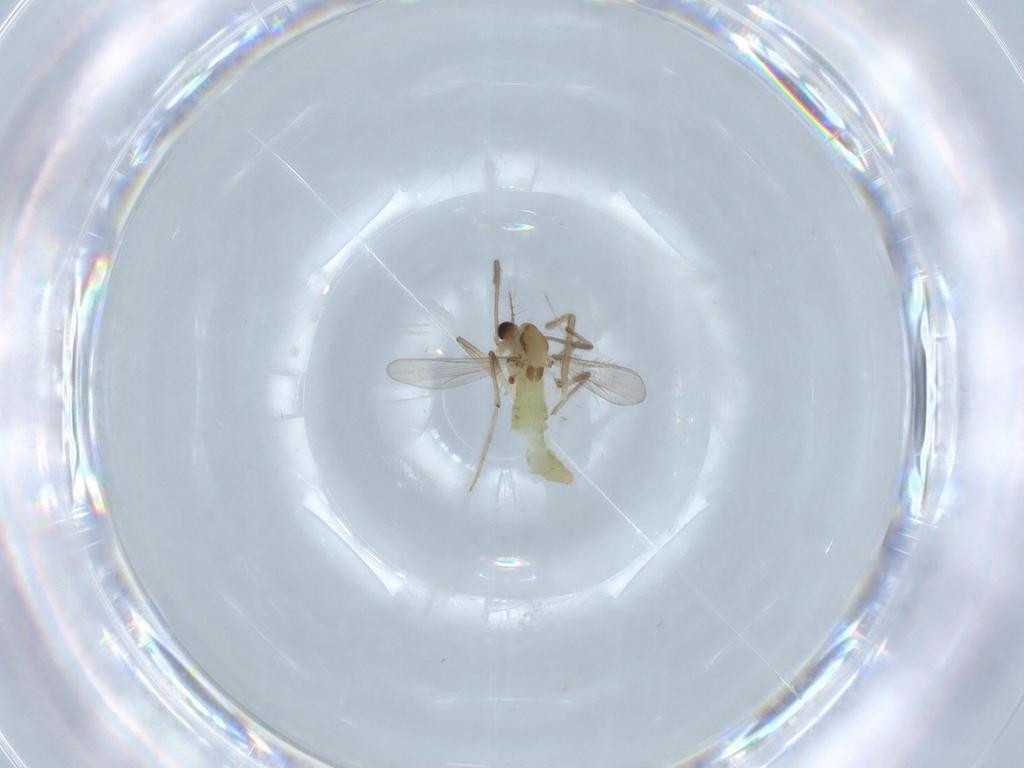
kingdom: Animalia
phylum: Arthropoda
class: Insecta
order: Diptera
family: Chironomidae
